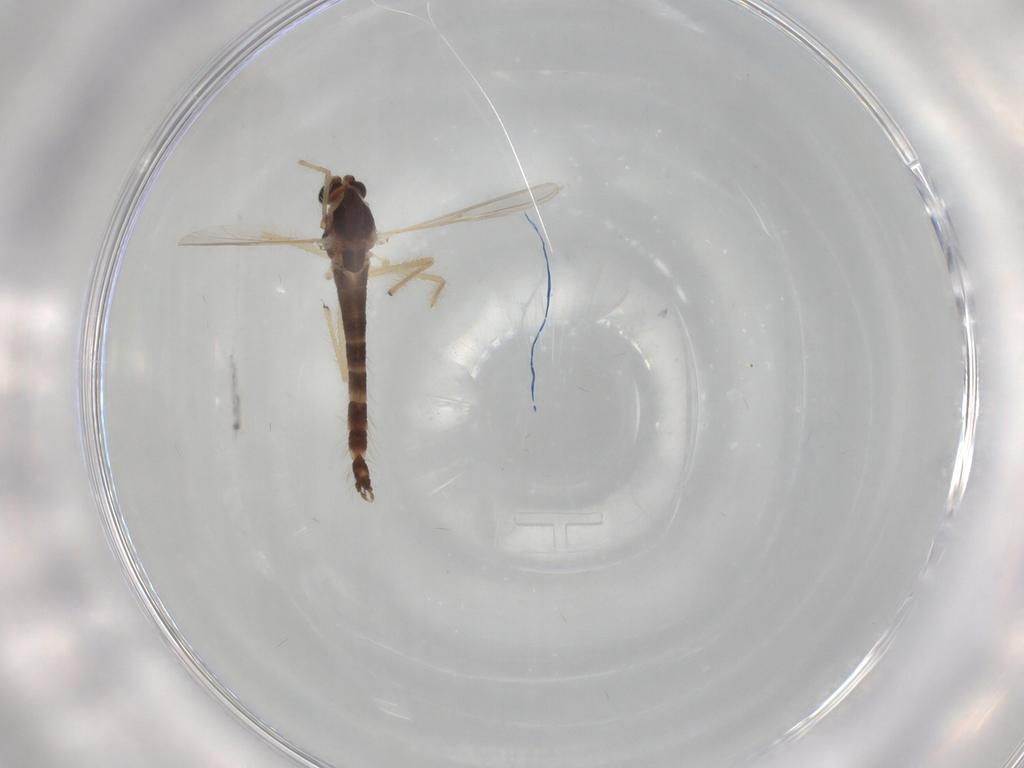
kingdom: Animalia
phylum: Arthropoda
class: Insecta
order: Diptera
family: Chironomidae
